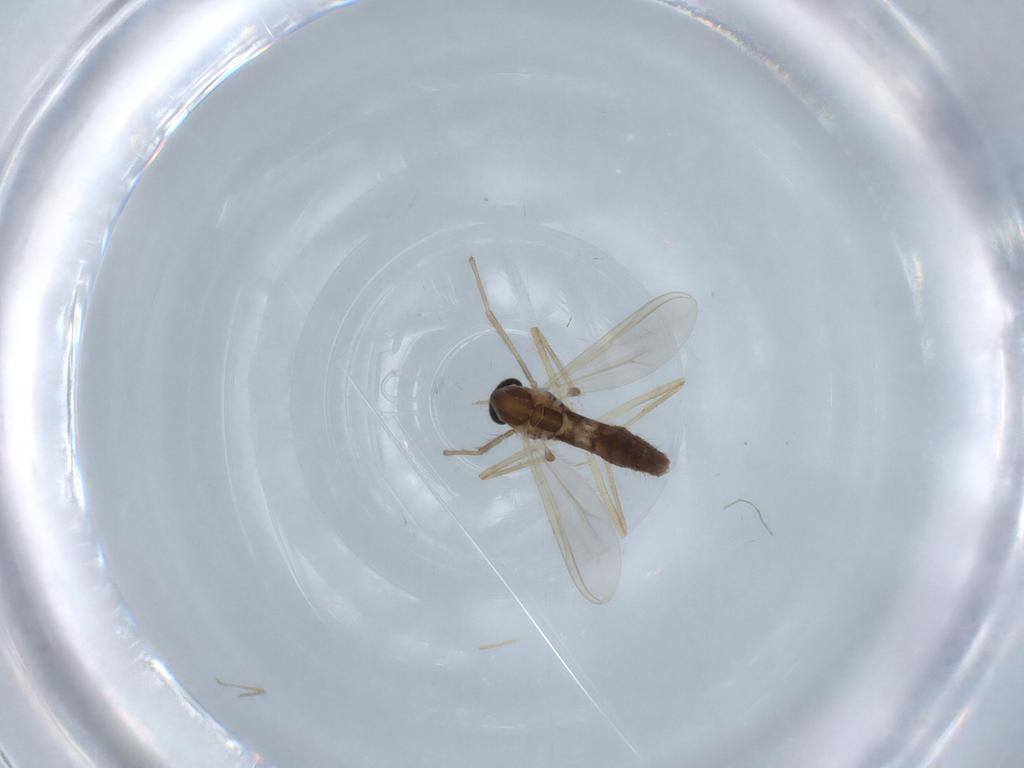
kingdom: Animalia
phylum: Arthropoda
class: Insecta
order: Diptera
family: Chironomidae
